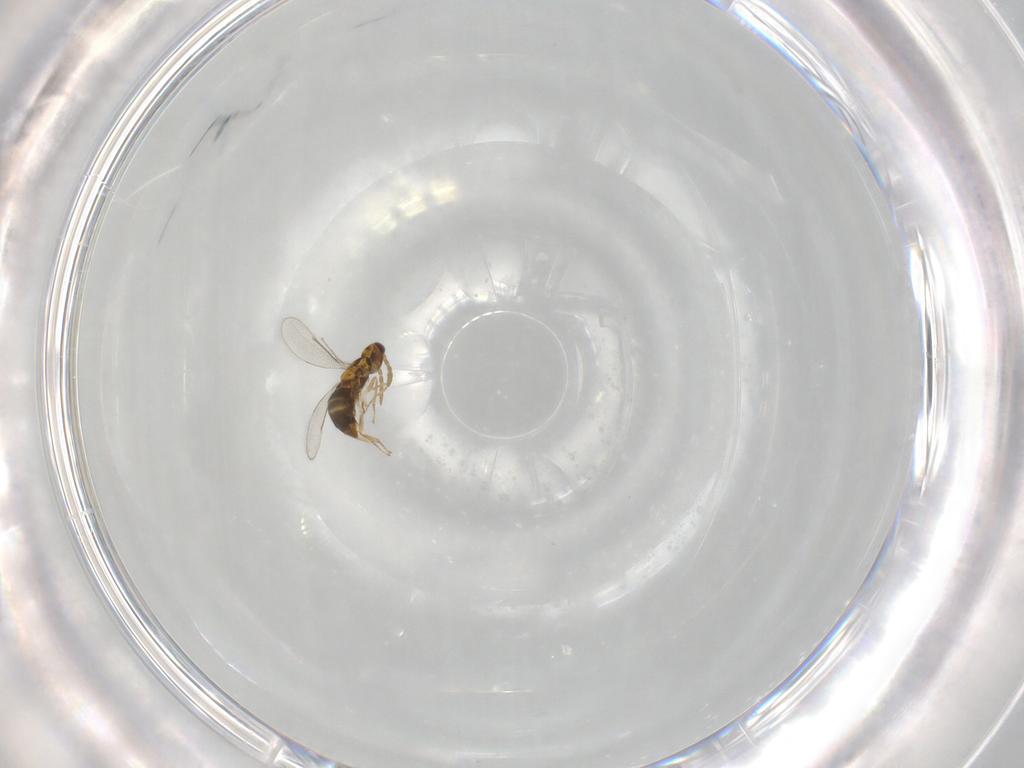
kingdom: Animalia
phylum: Arthropoda
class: Insecta
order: Hymenoptera
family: Aphelinidae
